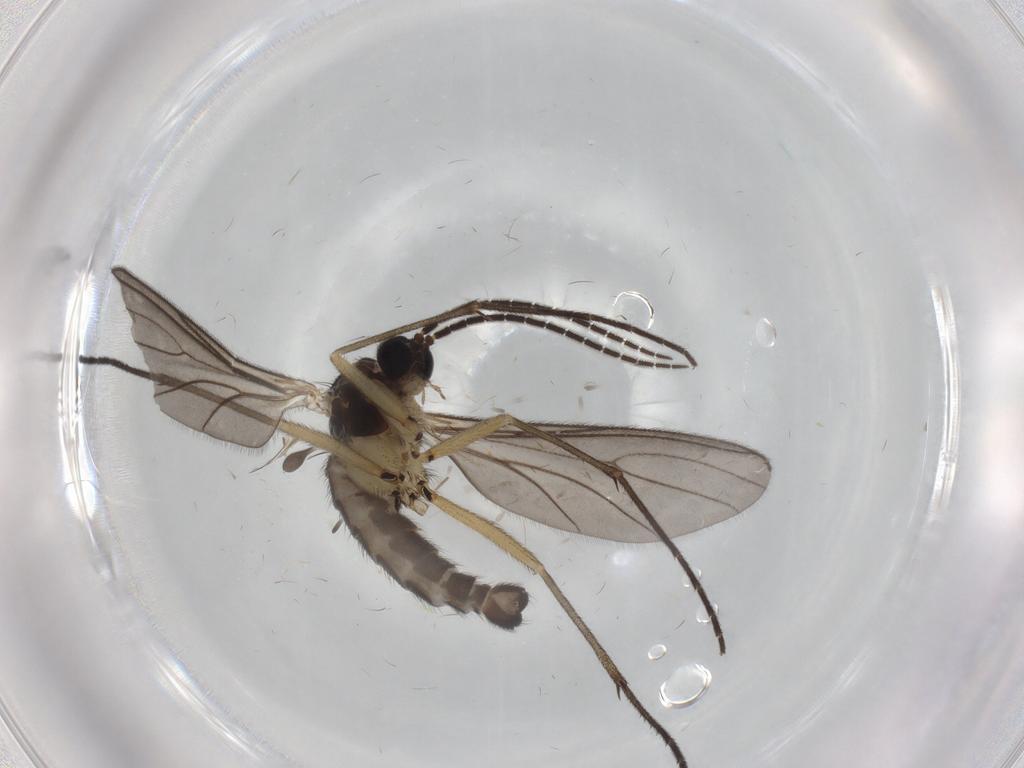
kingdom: Animalia
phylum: Arthropoda
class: Insecta
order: Diptera
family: Sciaridae
